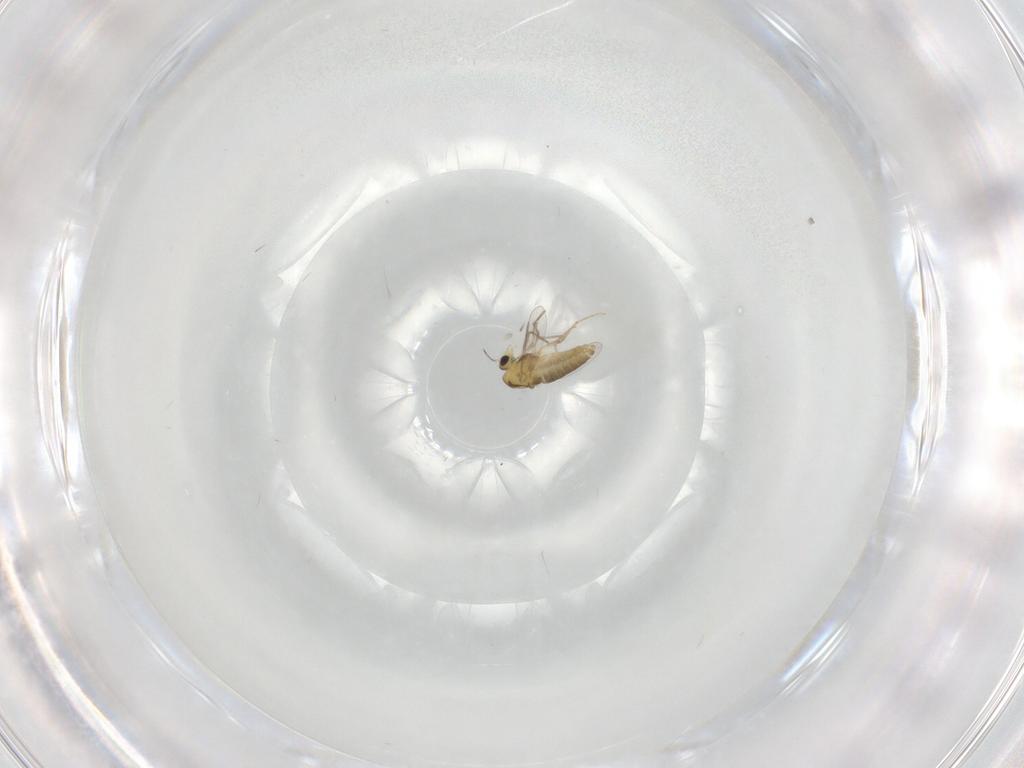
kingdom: Animalia
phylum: Arthropoda
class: Insecta
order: Diptera
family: Chironomidae
